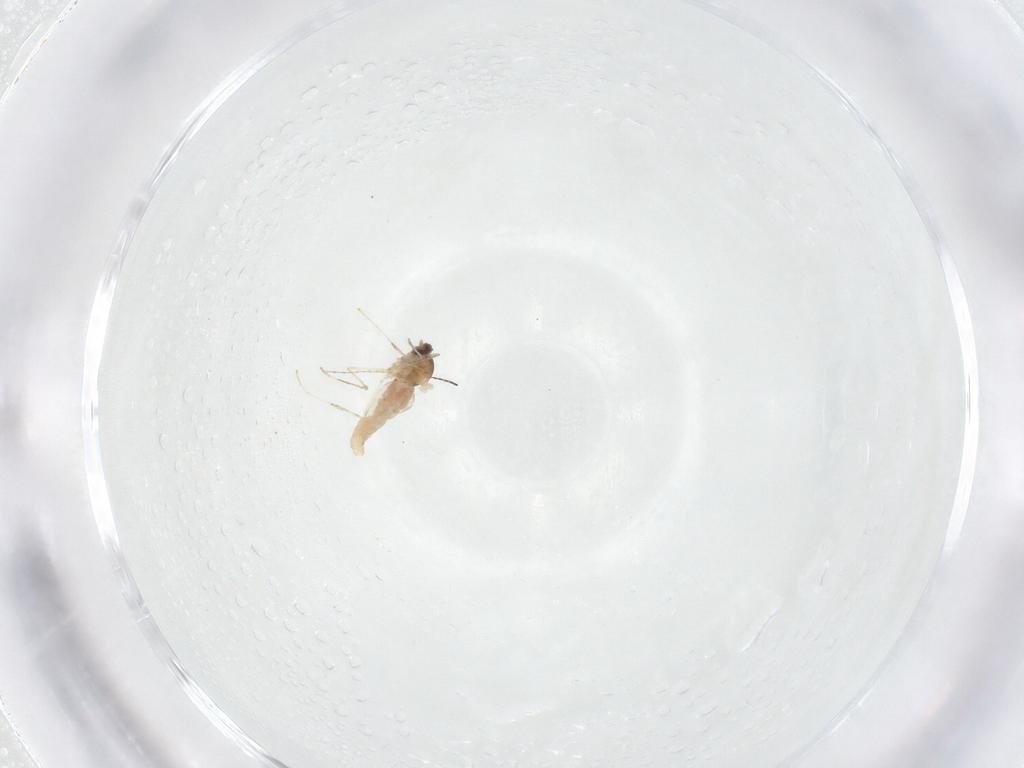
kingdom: Animalia
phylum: Arthropoda
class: Insecta
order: Diptera
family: Cecidomyiidae
